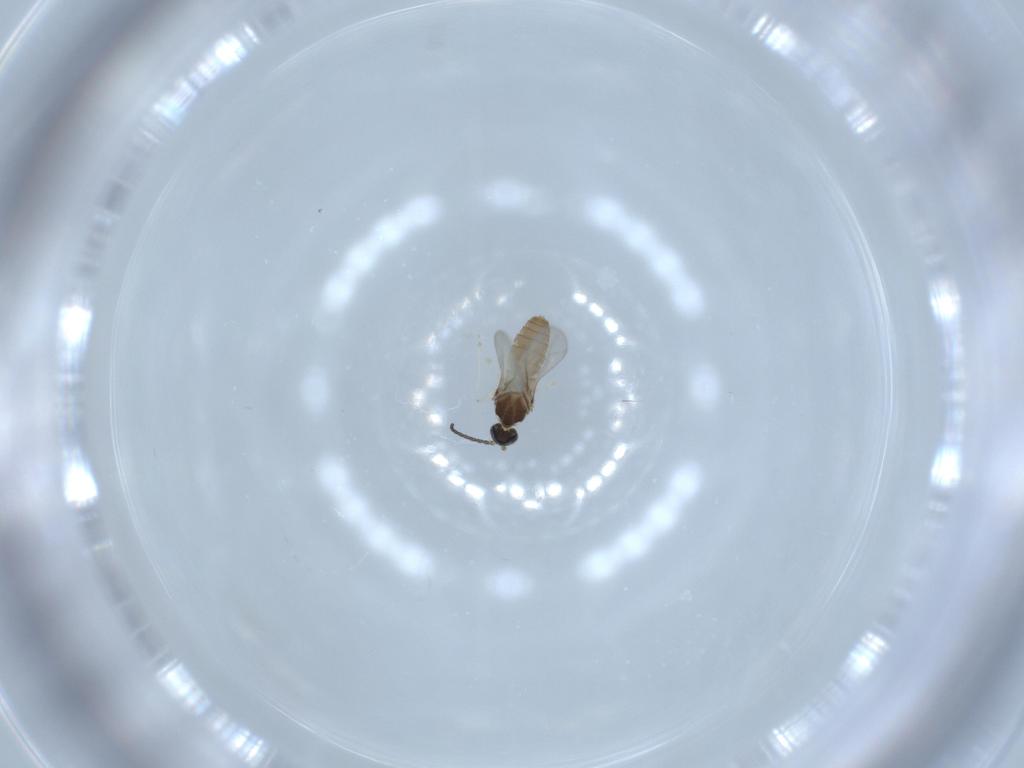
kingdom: Animalia
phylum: Arthropoda
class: Insecta
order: Diptera
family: Cecidomyiidae
